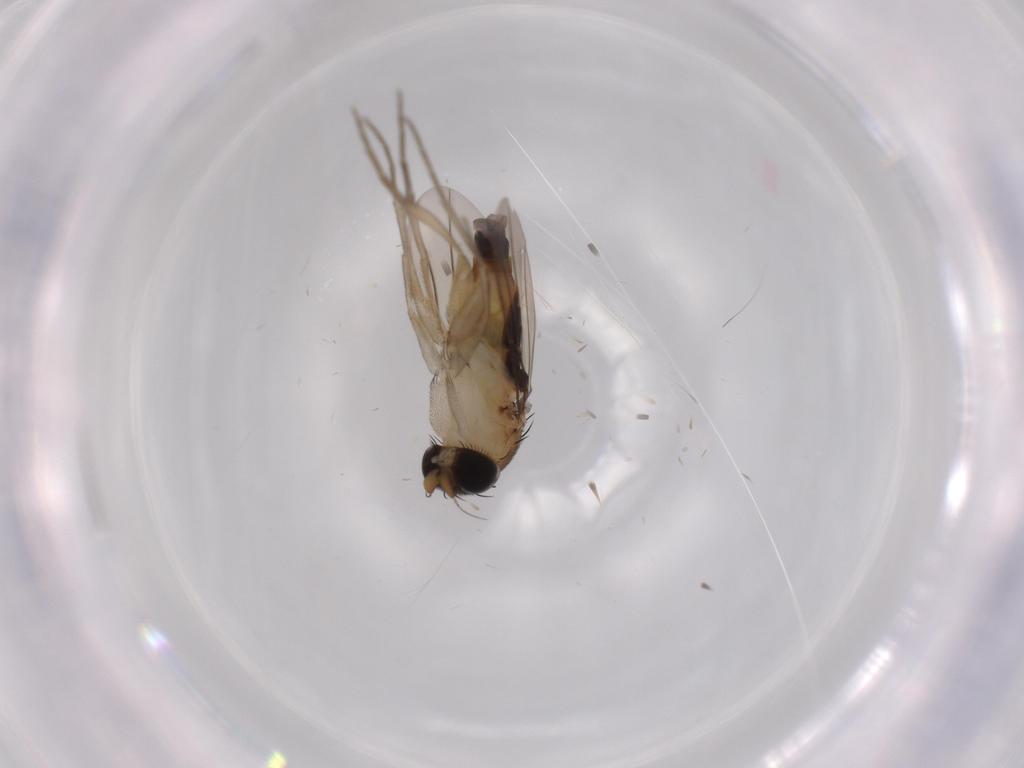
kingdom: Animalia
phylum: Arthropoda
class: Insecta
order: Diptera
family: Phoridae
